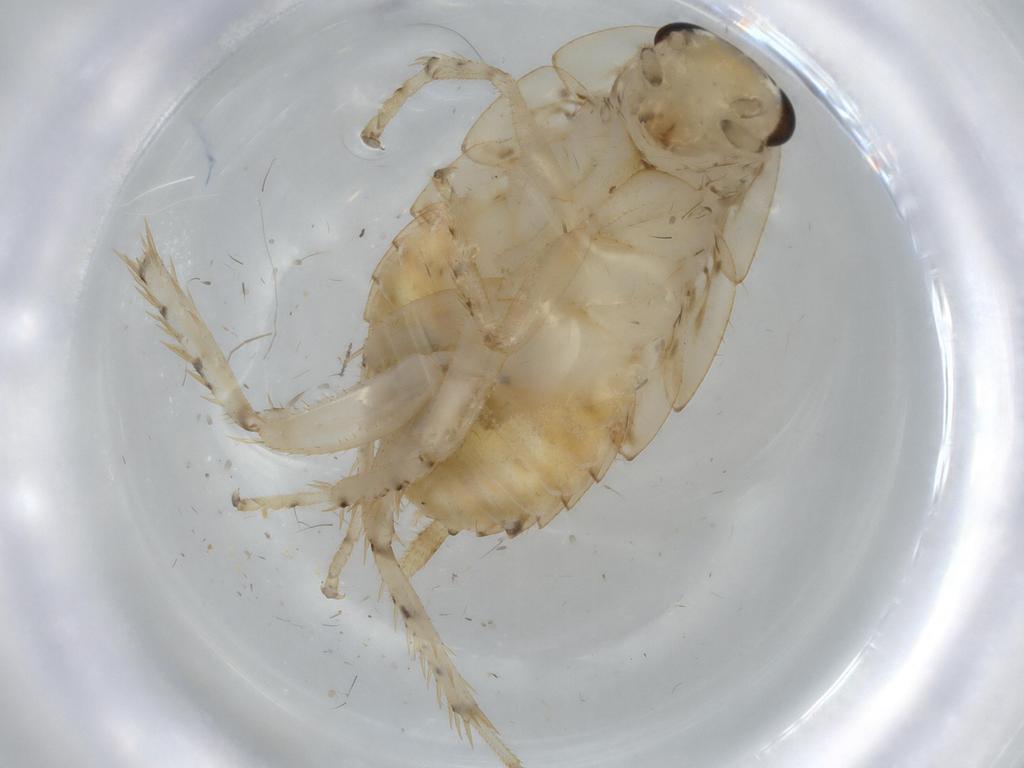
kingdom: Animalia
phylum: Arthropoda
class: Insecta
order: Blattodea
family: Ectobiidae
